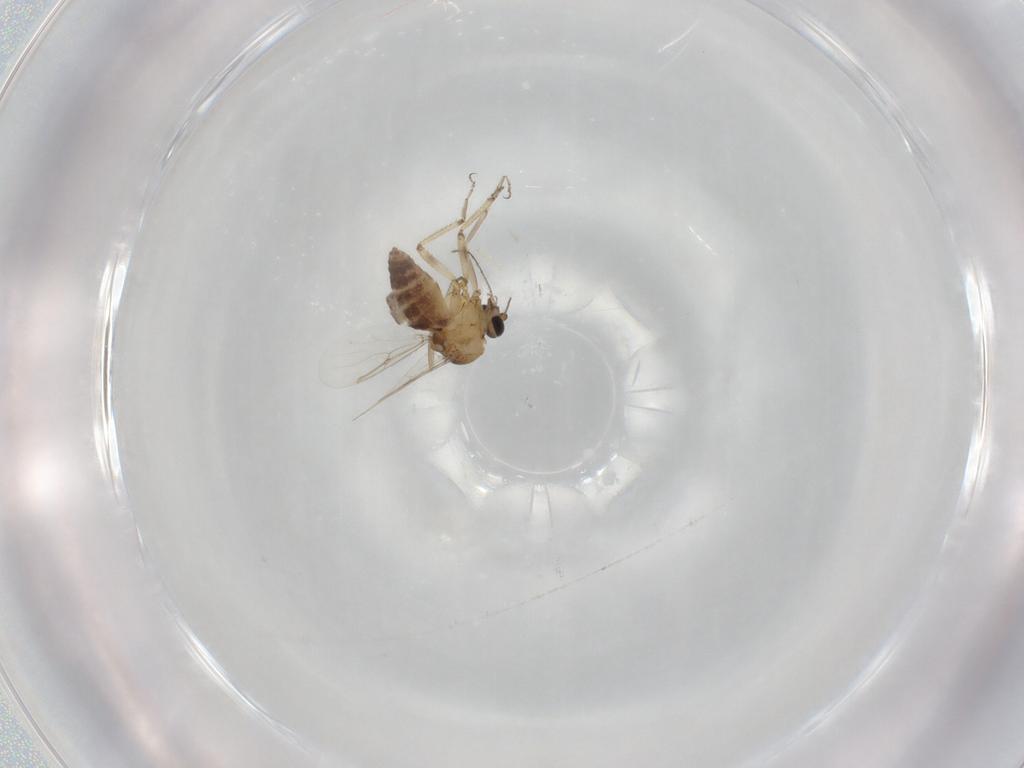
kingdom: Animalia
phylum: Arthropoda
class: Insecta
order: Diptera
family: Ceratopogonidae
